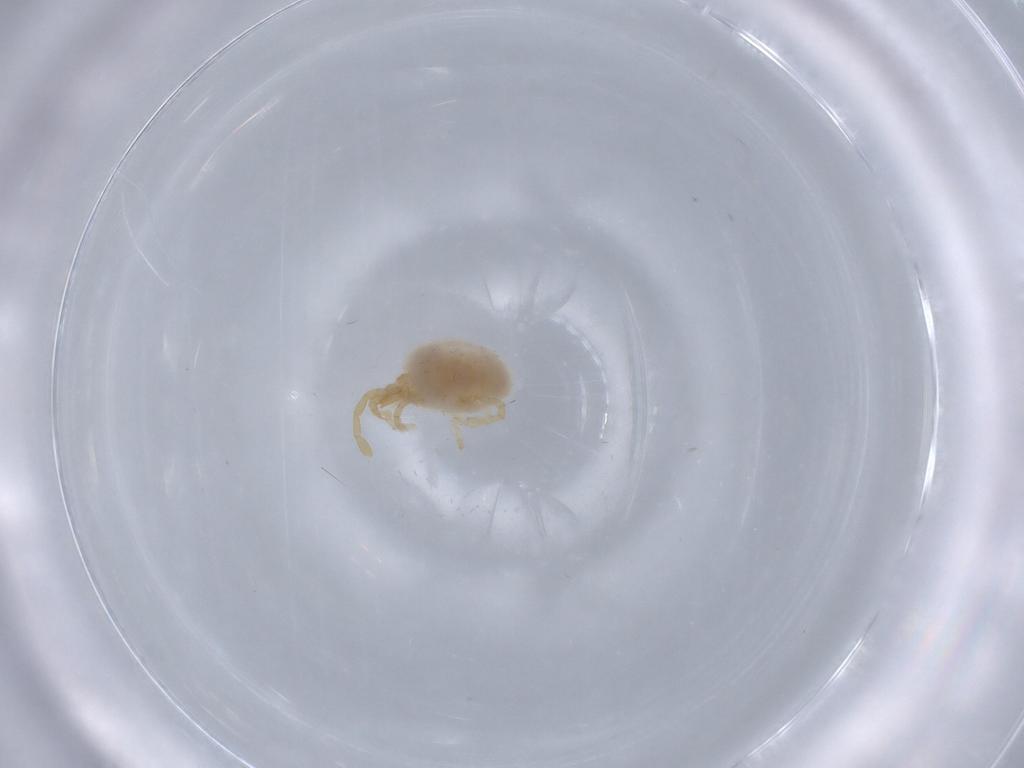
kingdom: Animalia
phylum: Arthropoda
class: Arachnida
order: Trombidiformes
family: Trombidiidae
